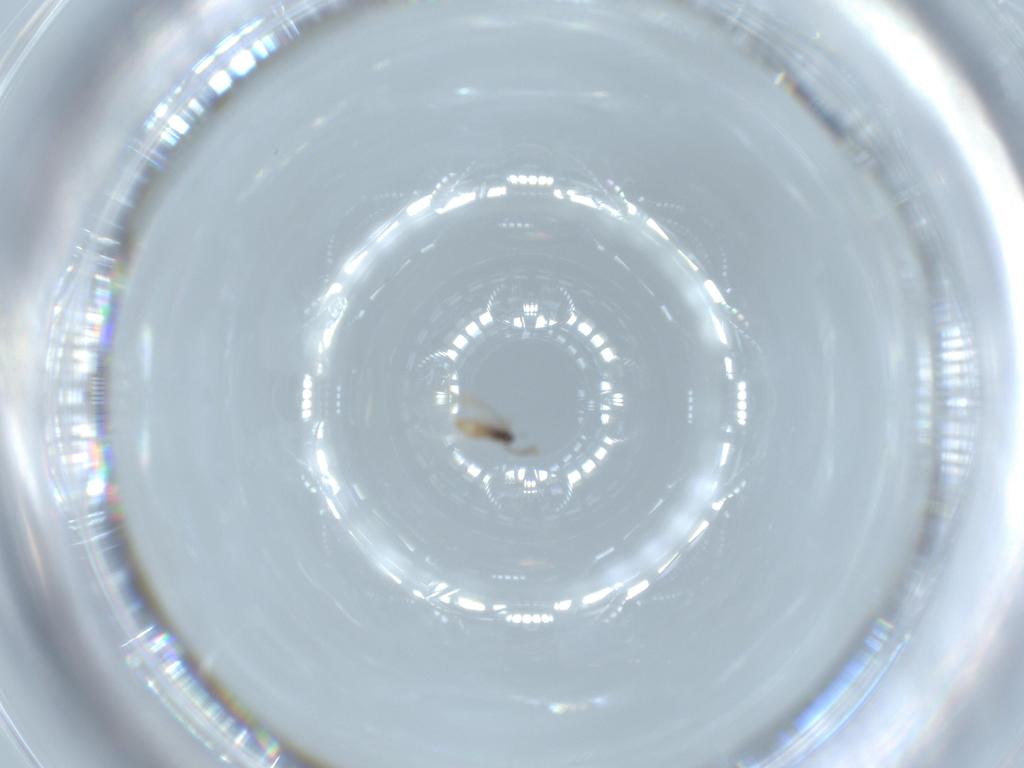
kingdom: Animalia
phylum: Arthropoda
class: Insecta
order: Diptera
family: Cecidomyiidae
